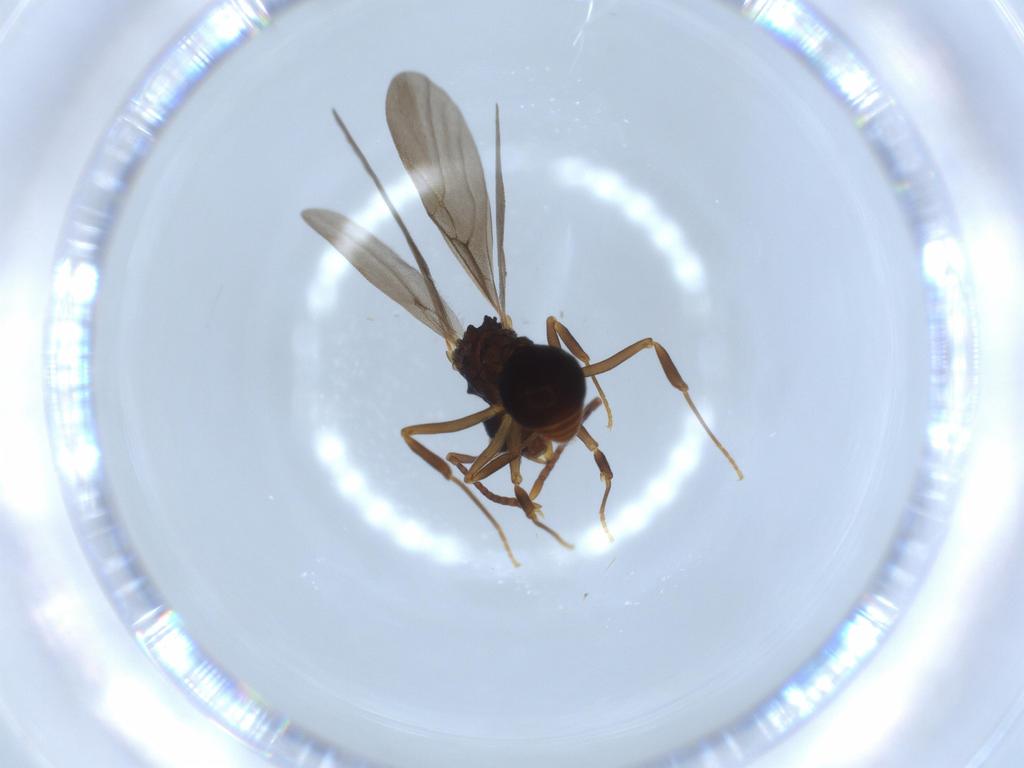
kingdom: Animalia
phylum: Arthropoda
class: Insecta
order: Hymenoptera
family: Formicidae
